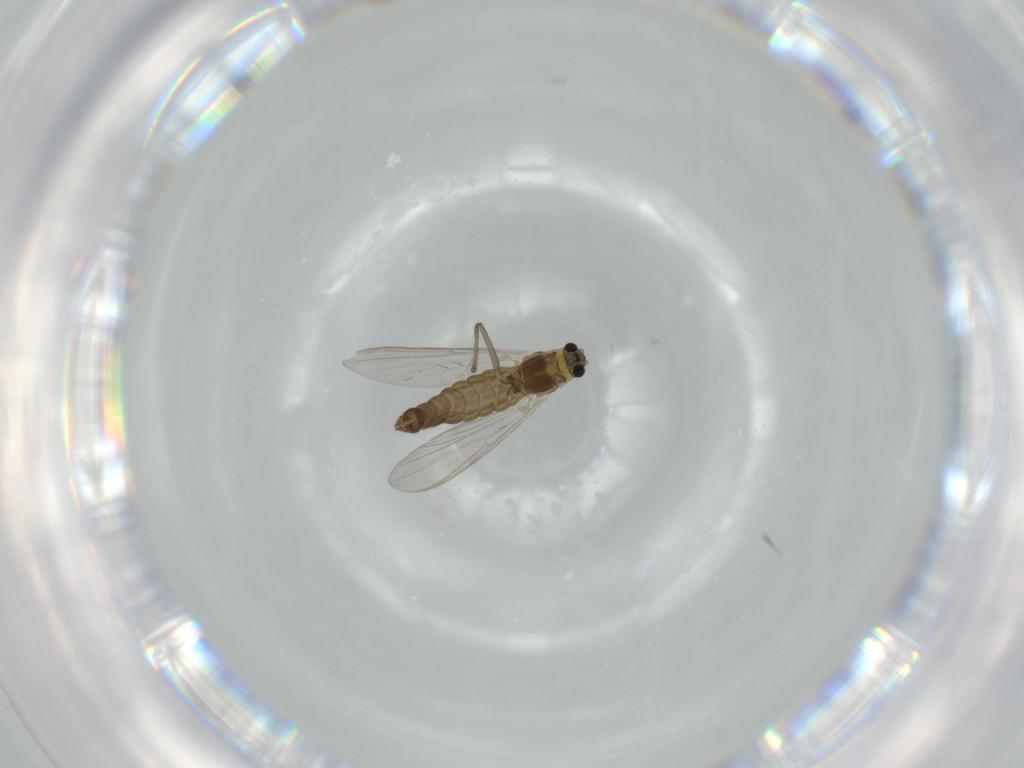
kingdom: Animalia
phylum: Arthropoda
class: Insecta
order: Diptera
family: Chironomidae
